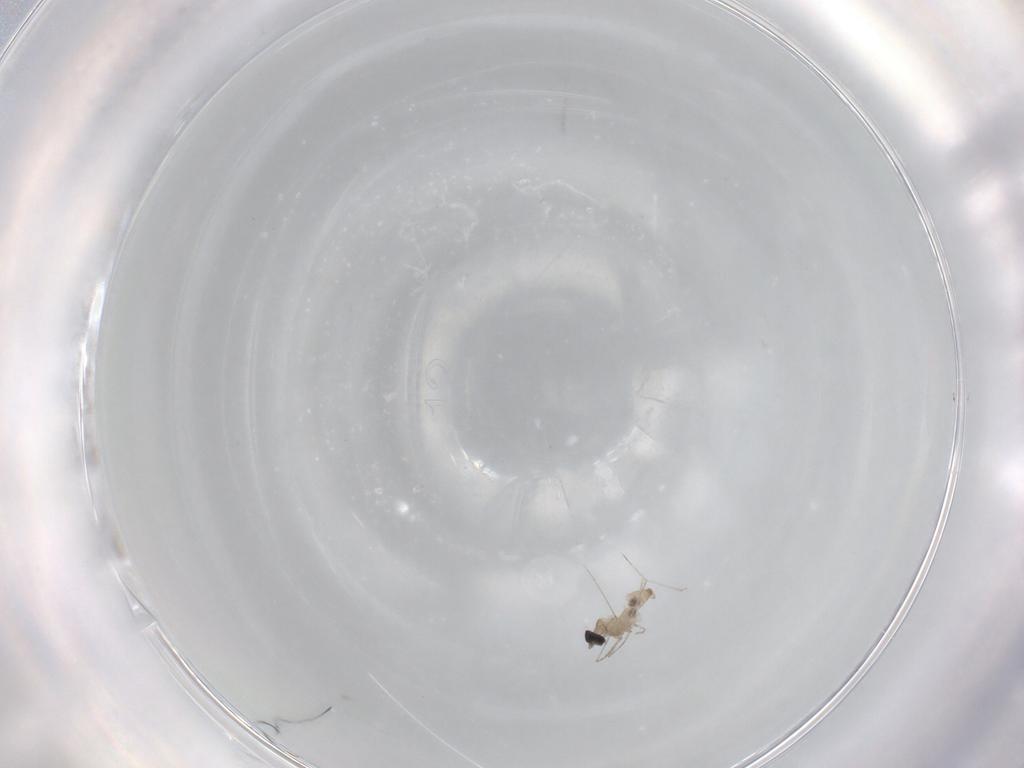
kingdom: Animalia
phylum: Arthropoda
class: Insecta
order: Diptera
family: Cecidomyiidae
